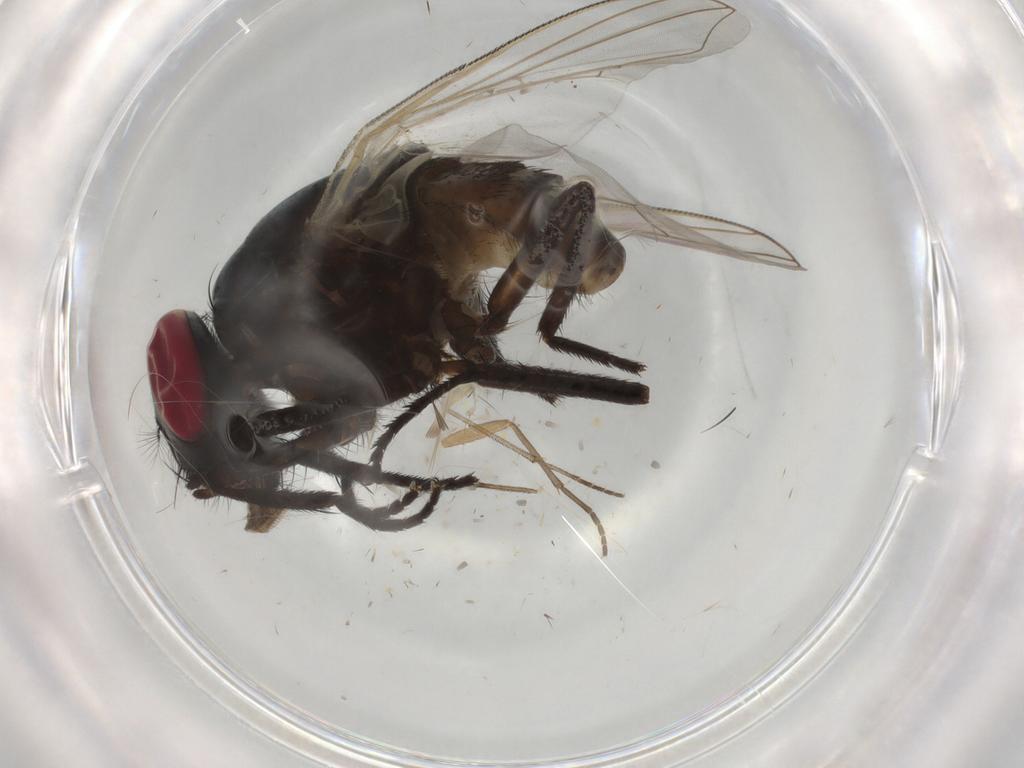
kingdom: Animalia
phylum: Arthropoda
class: Insecta
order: Diptera
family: Muscidae
